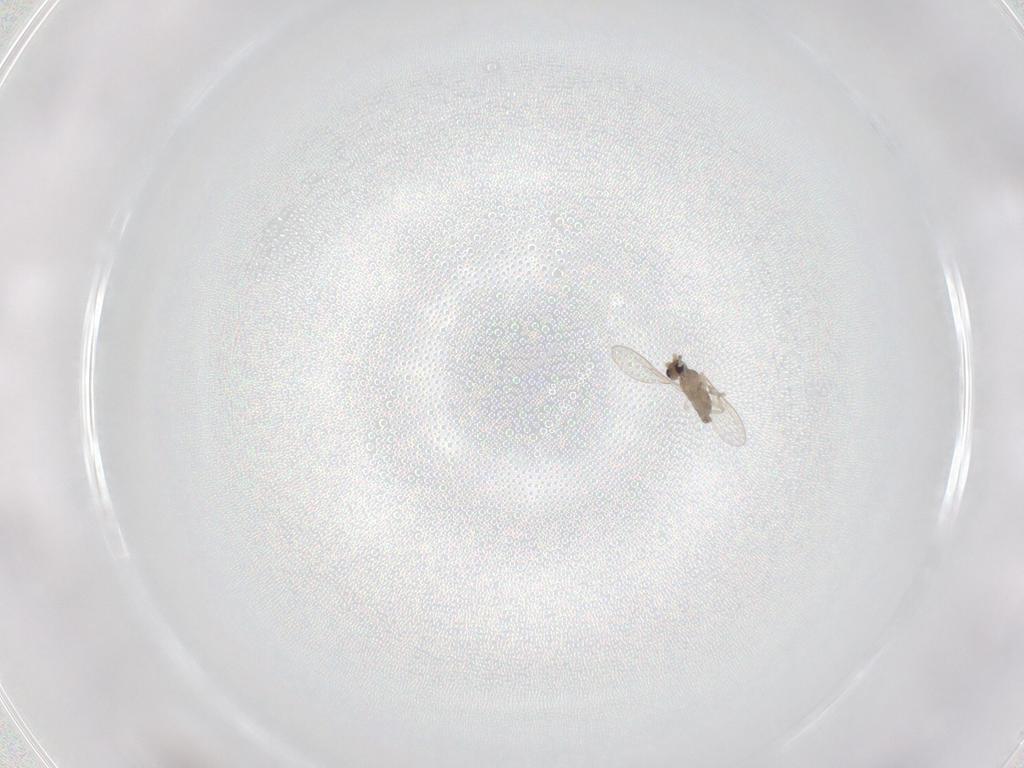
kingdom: Animalia
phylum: Arthropoda
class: Insecta
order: Diptera
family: Cecidomyiidae
